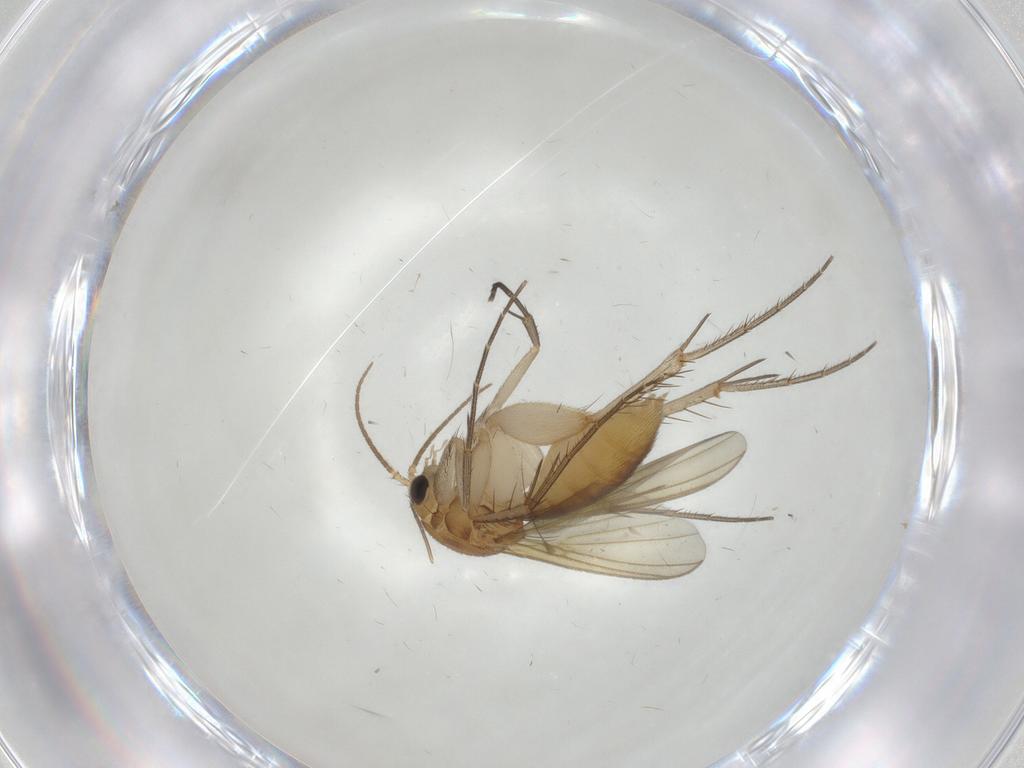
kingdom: Animalia
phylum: Arthropoda
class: Insecta
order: Diptera
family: Mycetophilidae
